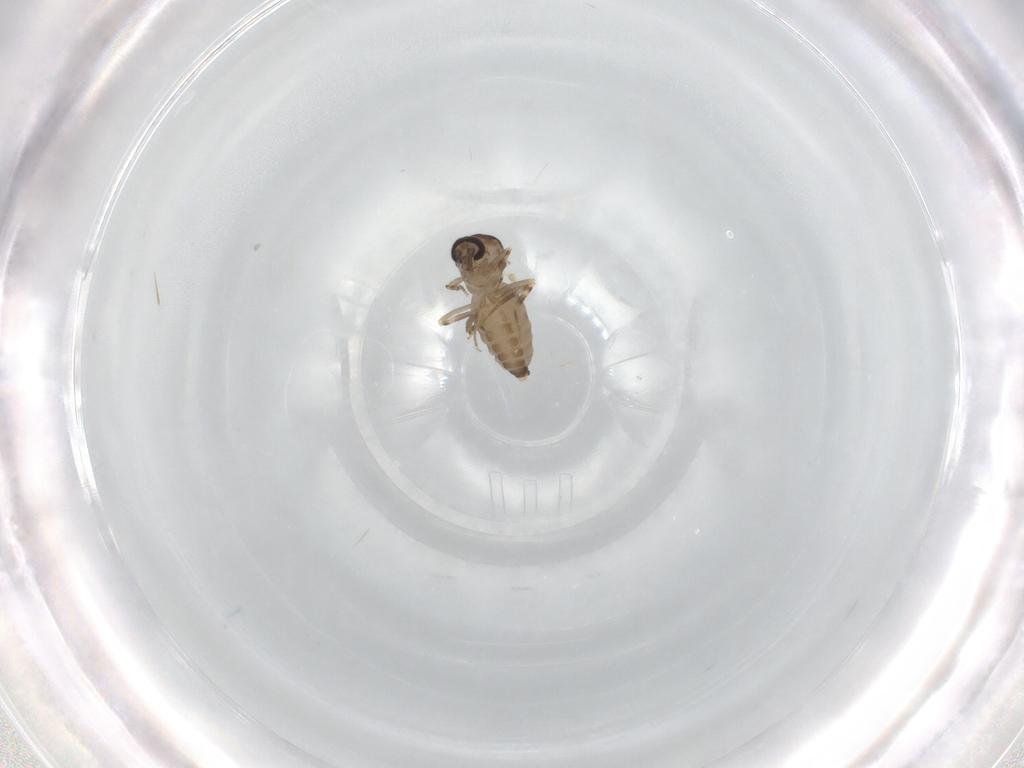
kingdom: Animalia
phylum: Arthropoda
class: Insecta
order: Diptera
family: Ceratopogonidae
